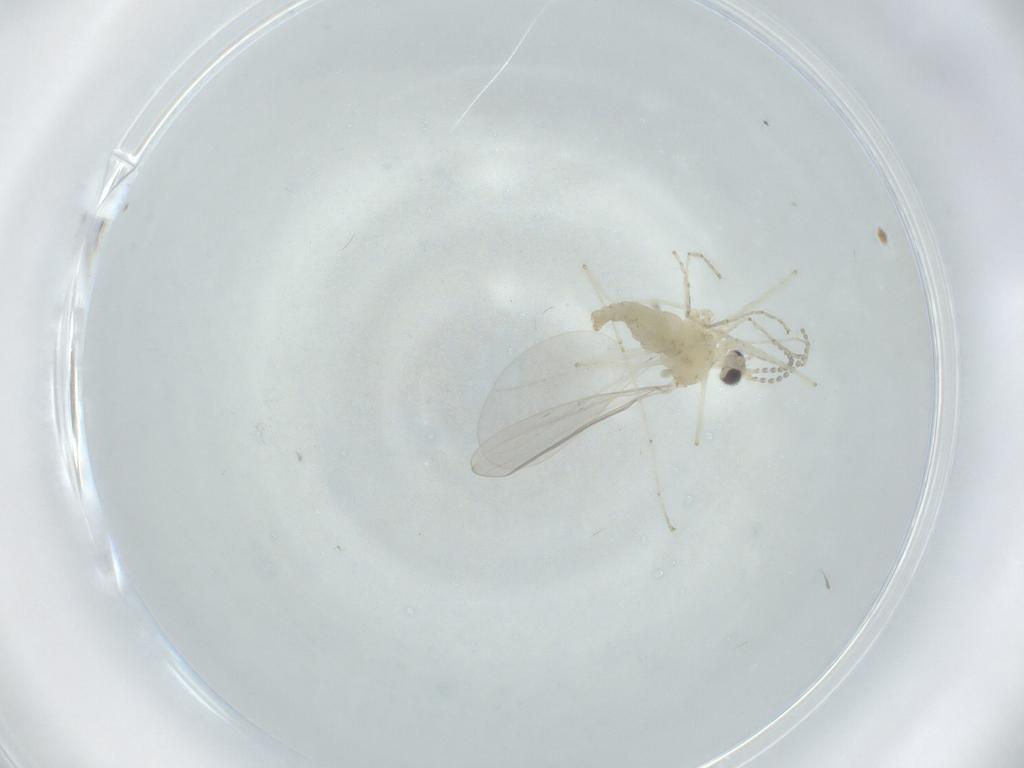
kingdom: Animalia
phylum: Arthropoda
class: Insecta
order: Diptera
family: Cecidomyiidae
